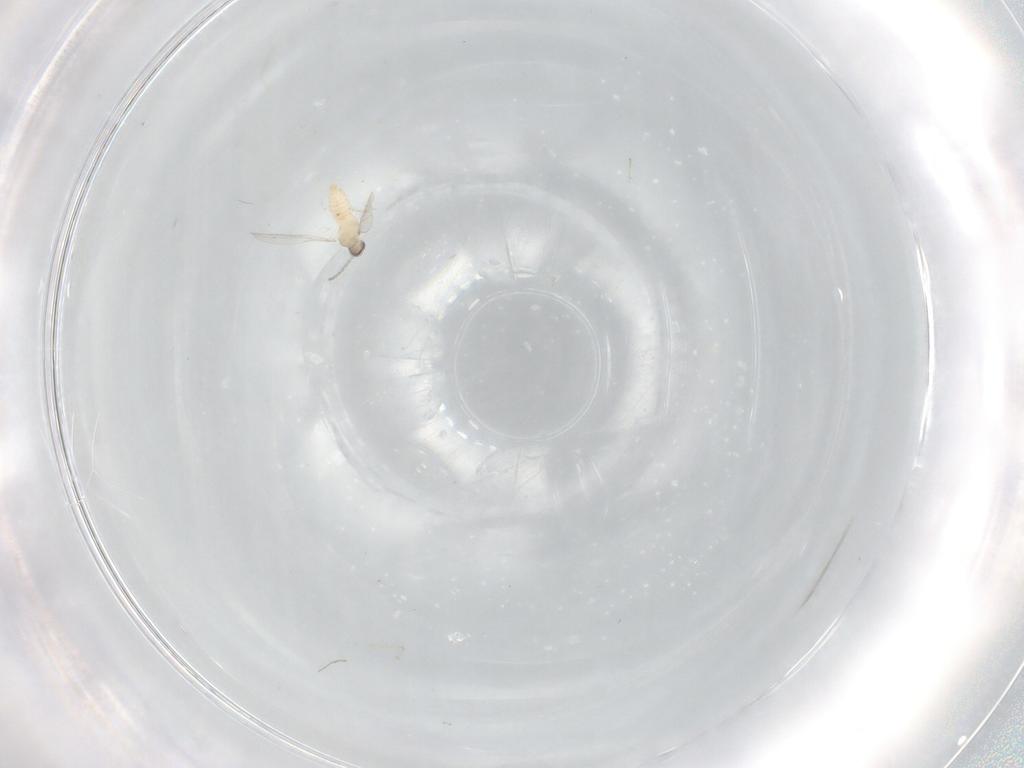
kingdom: Animalia
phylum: Arthropoda
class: Insecta
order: Diptera
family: Cecidomyiidae
